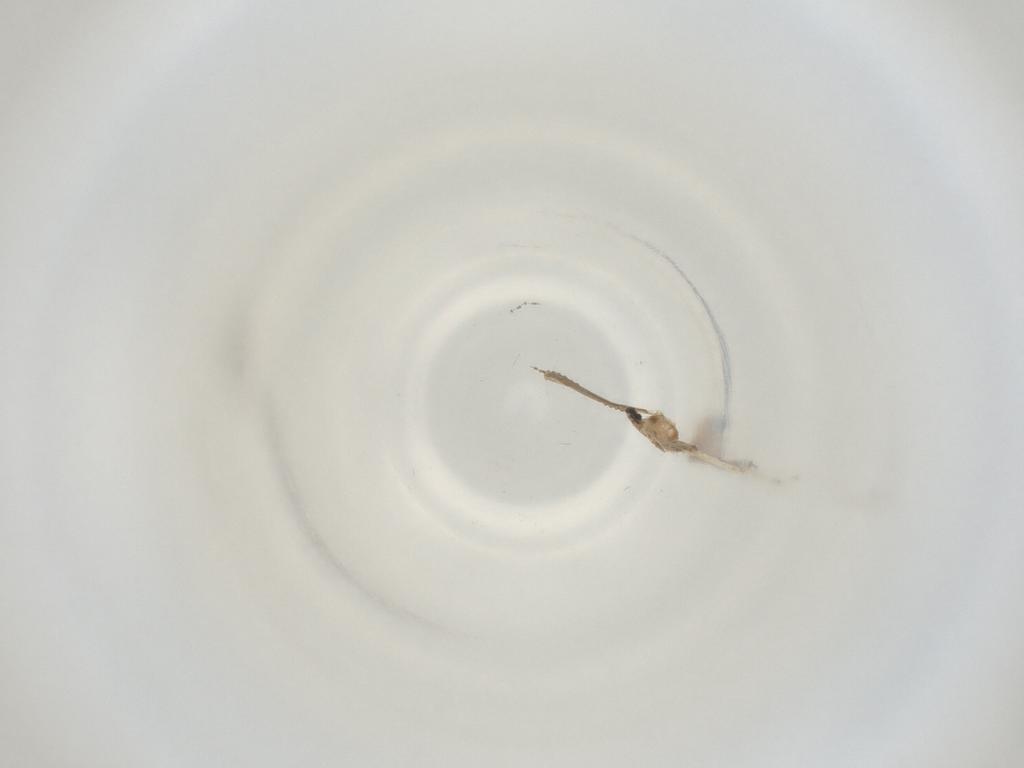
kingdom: Animalia
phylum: Arthropoda
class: Insecta
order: Diptera
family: Cecidomyiidae
